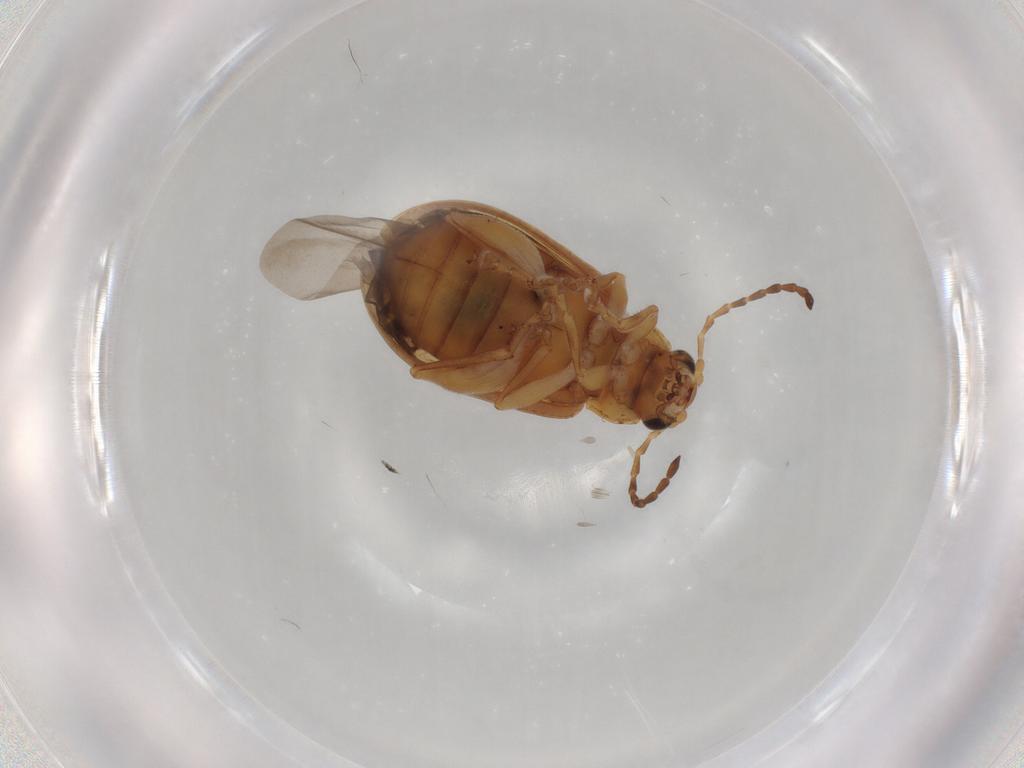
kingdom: Animalia
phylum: Arthropoda
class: Insecta
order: Coleoptera
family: Chrysomelidae
